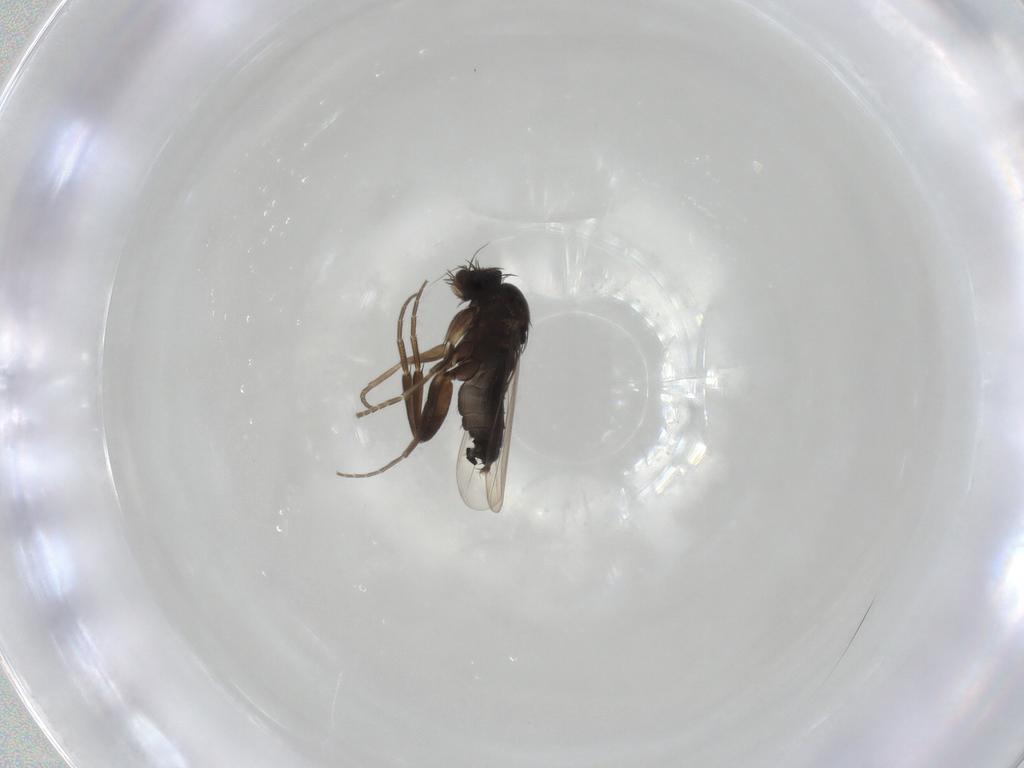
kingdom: Animalia
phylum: Arthropoda
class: Insecta
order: Diptera
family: Phoridae
